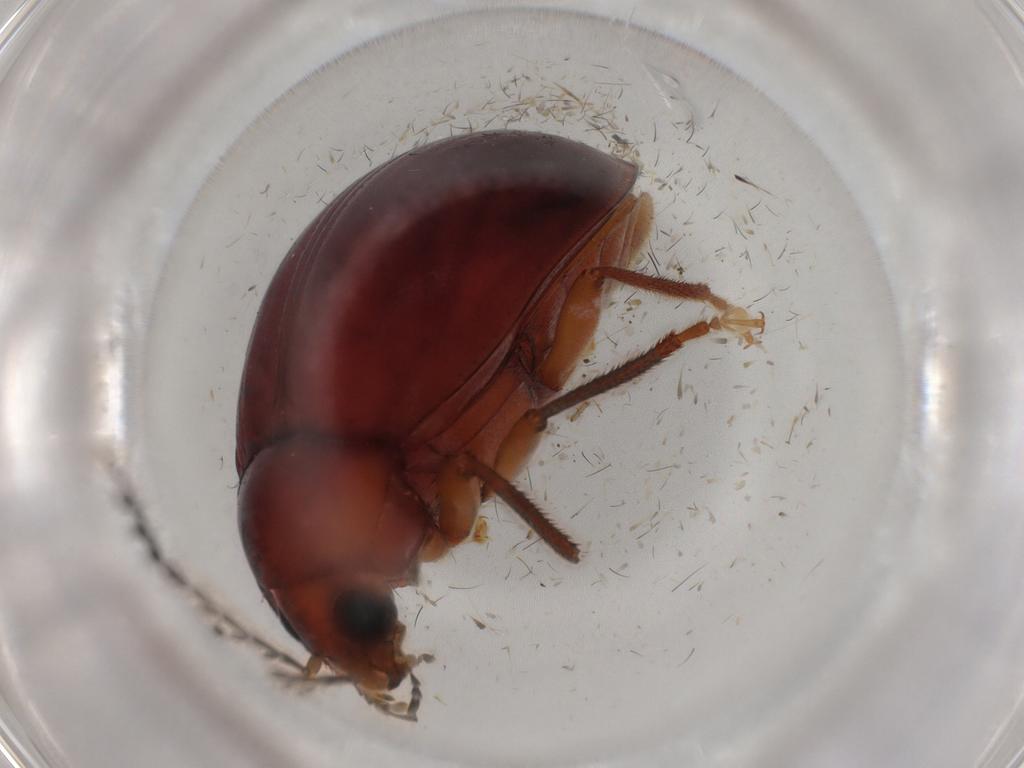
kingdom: Animalia
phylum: Arthropoda
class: Insecta
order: Coleoptera
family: Ptilodactylidae
